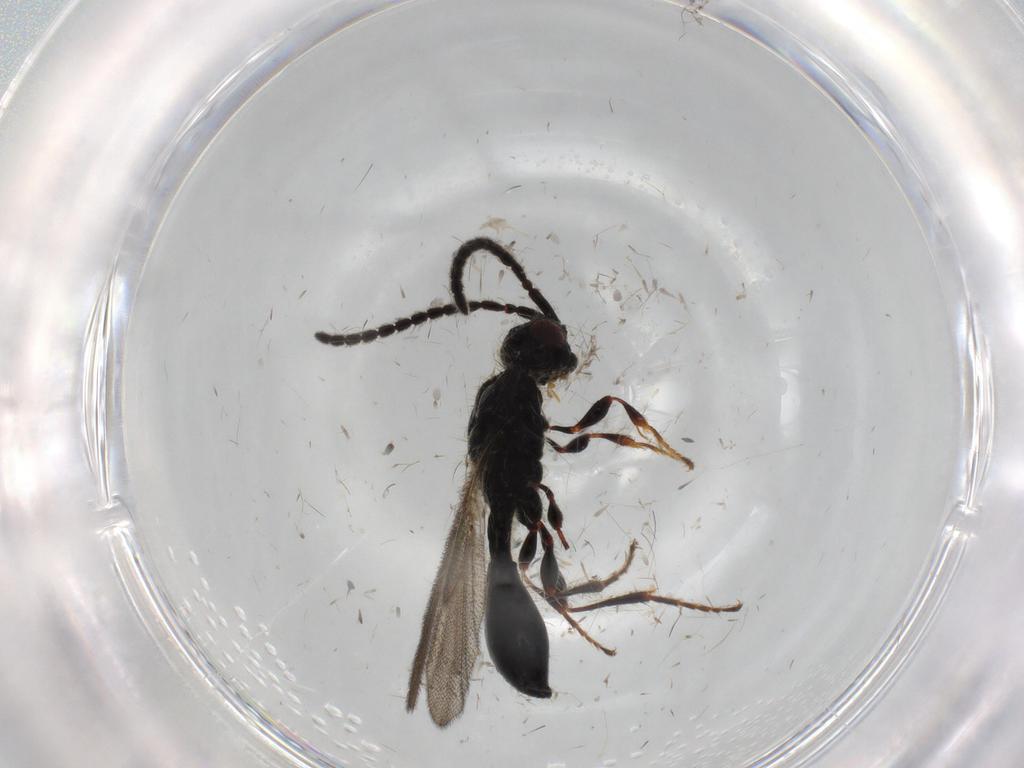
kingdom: Animalia
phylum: Arthropoda
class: Insecta
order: Hymenoptera
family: Diapriidae
